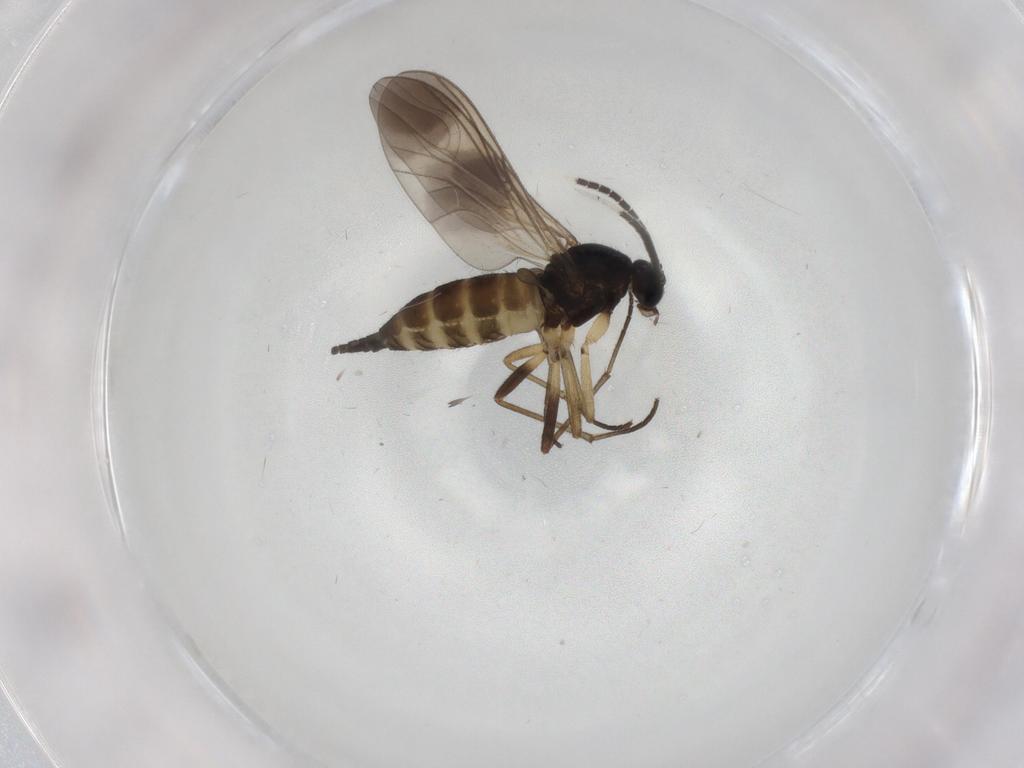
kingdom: Animalia
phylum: Arthropoda
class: Insecta
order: Diptera
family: Sciaridae
